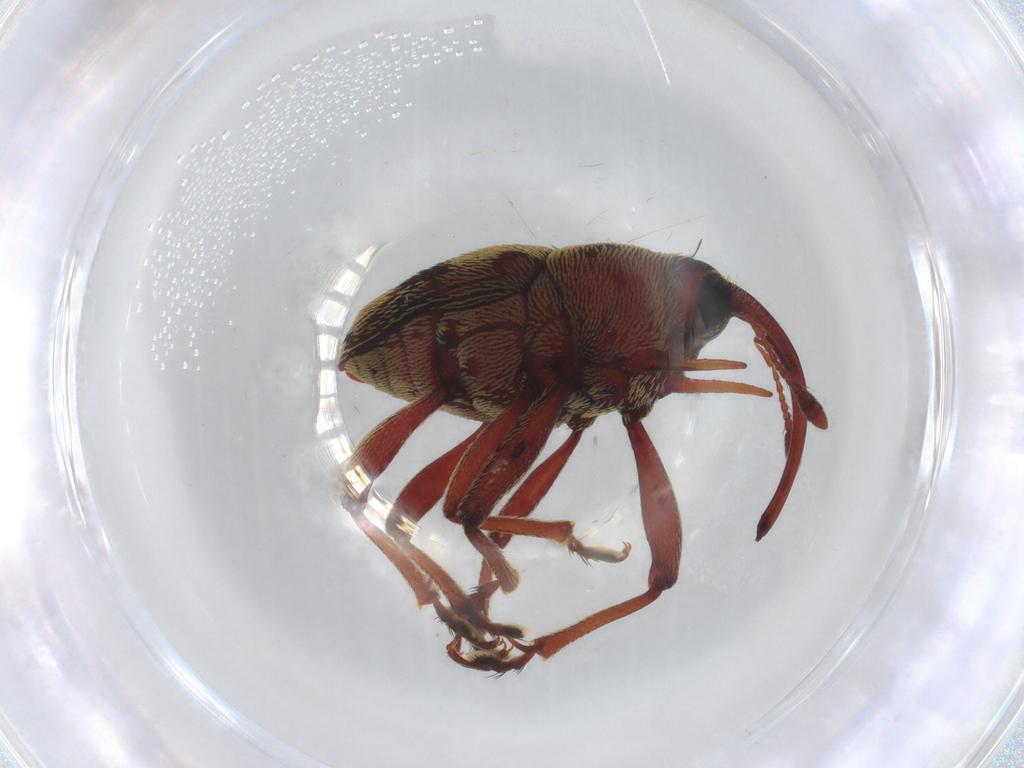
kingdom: Animalia
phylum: Arthropoda
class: Insecta
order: Coleoptera
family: Curculionidae
